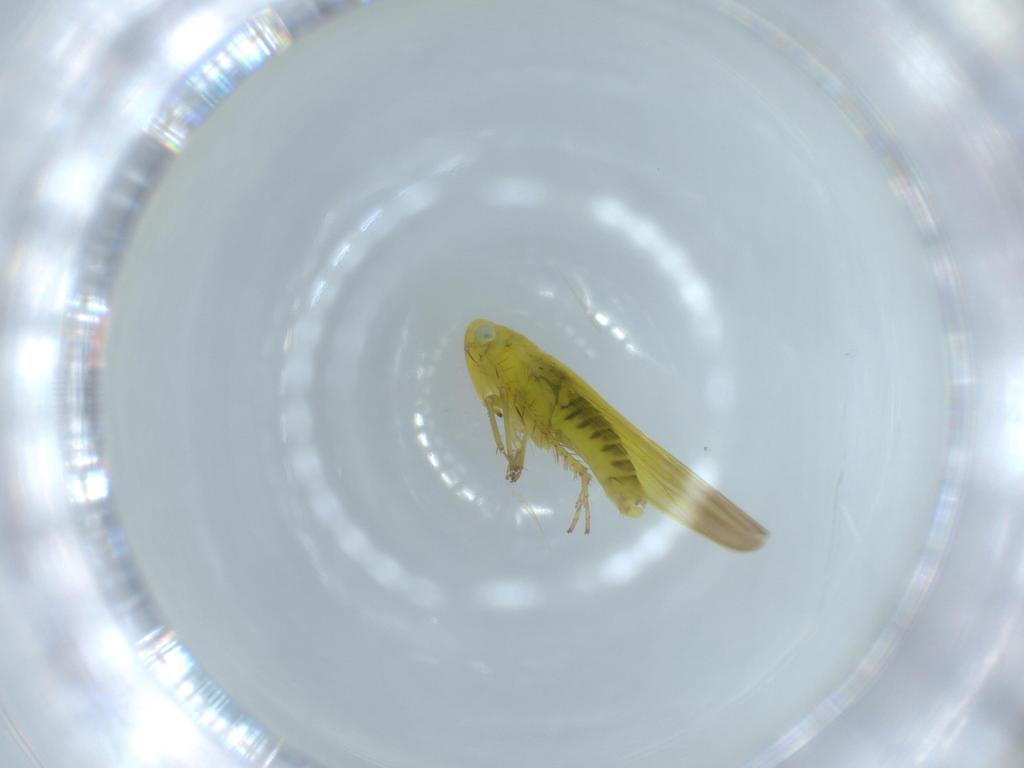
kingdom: Animalia
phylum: Arthropoda
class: Insecta
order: Hemiptera
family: Cicadellidae
